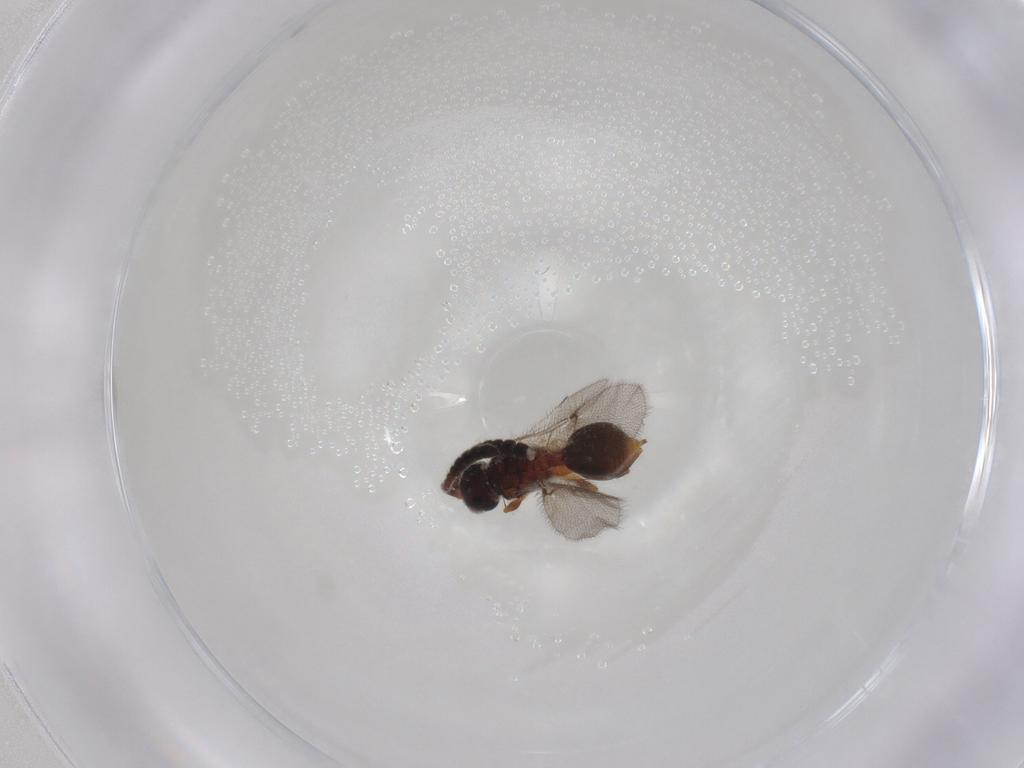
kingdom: Animalia
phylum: Arthropoda
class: Insecta
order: Hymenoptera
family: Diapriidae
